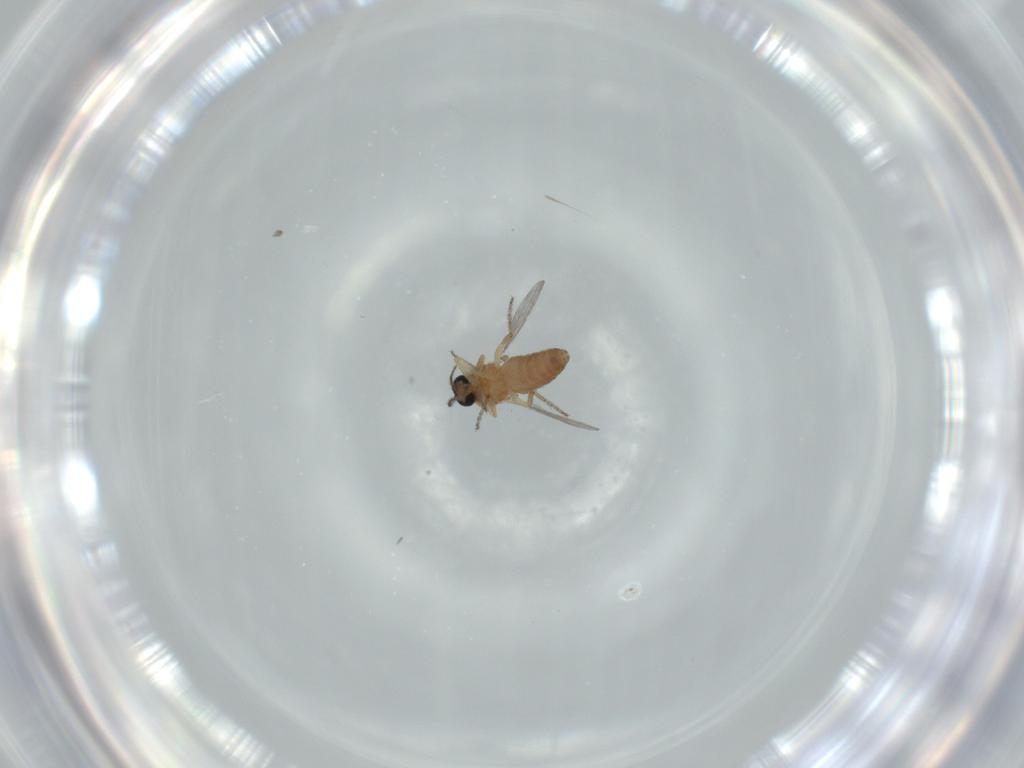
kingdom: Animalia
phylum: Arthropoda
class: Insecta
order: Diptera
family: Ceratopogonidae
